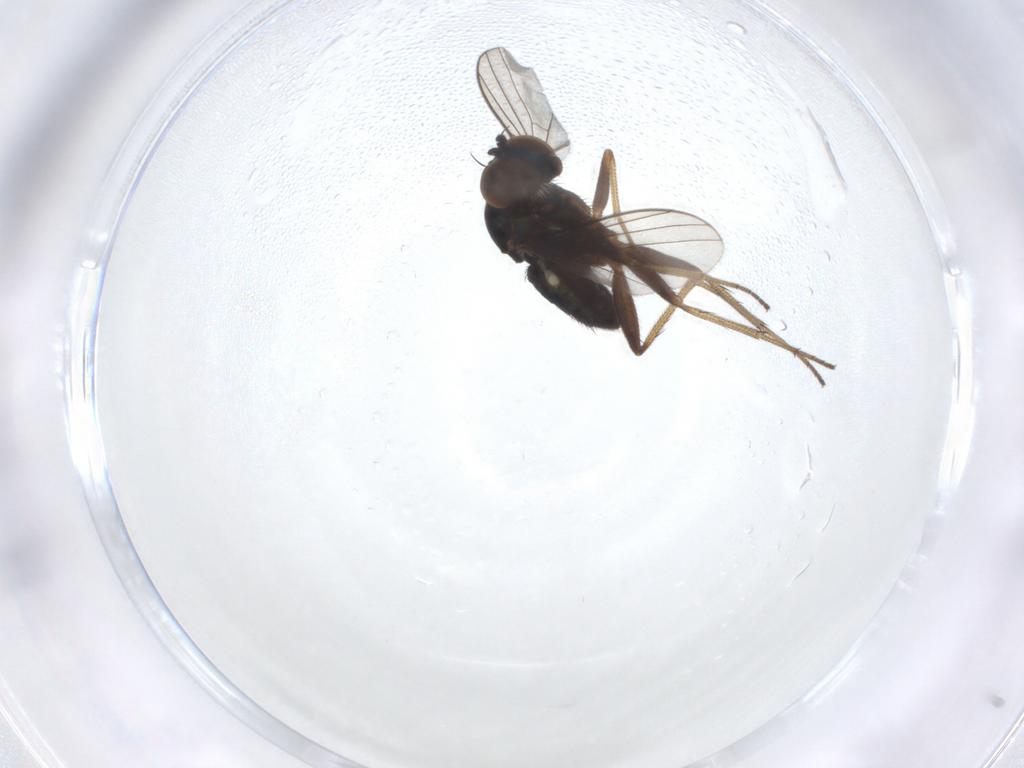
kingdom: Animalia
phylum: Arthropoda
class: Insecta
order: Diptera
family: Dolichopodidae
